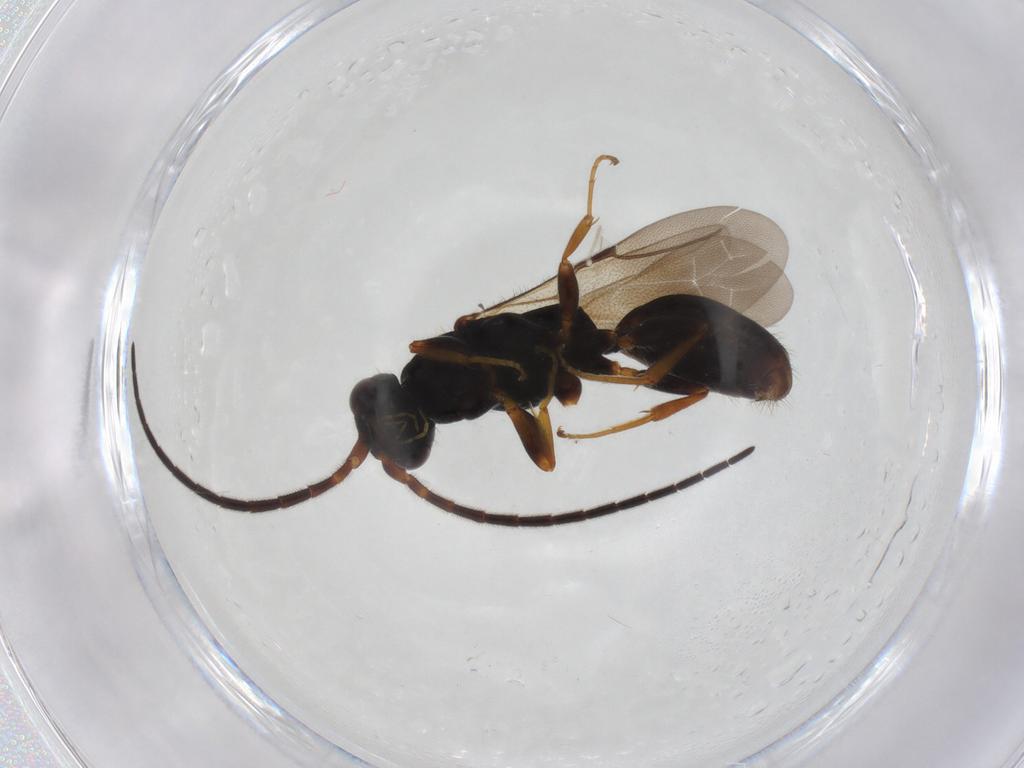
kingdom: Animalia
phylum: Arthropoda
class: Insecta
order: Hymenoptera
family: Bethylidae
